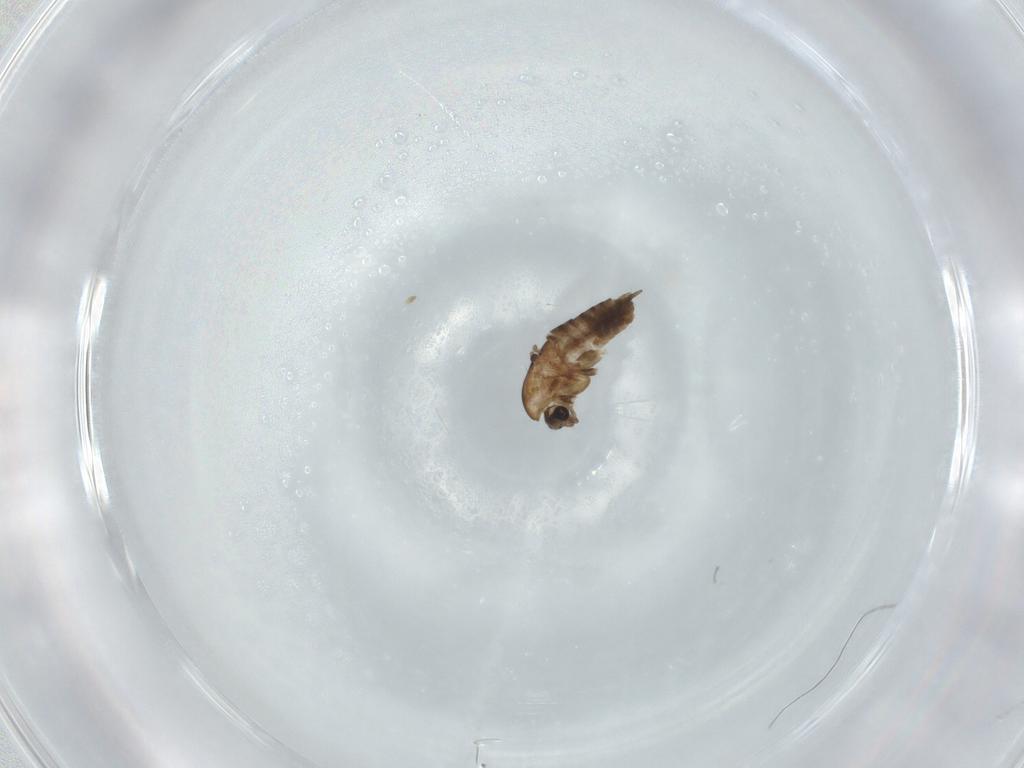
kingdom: Animalia
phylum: Arthropoda
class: Insecta
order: Diptera
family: Phoridae
